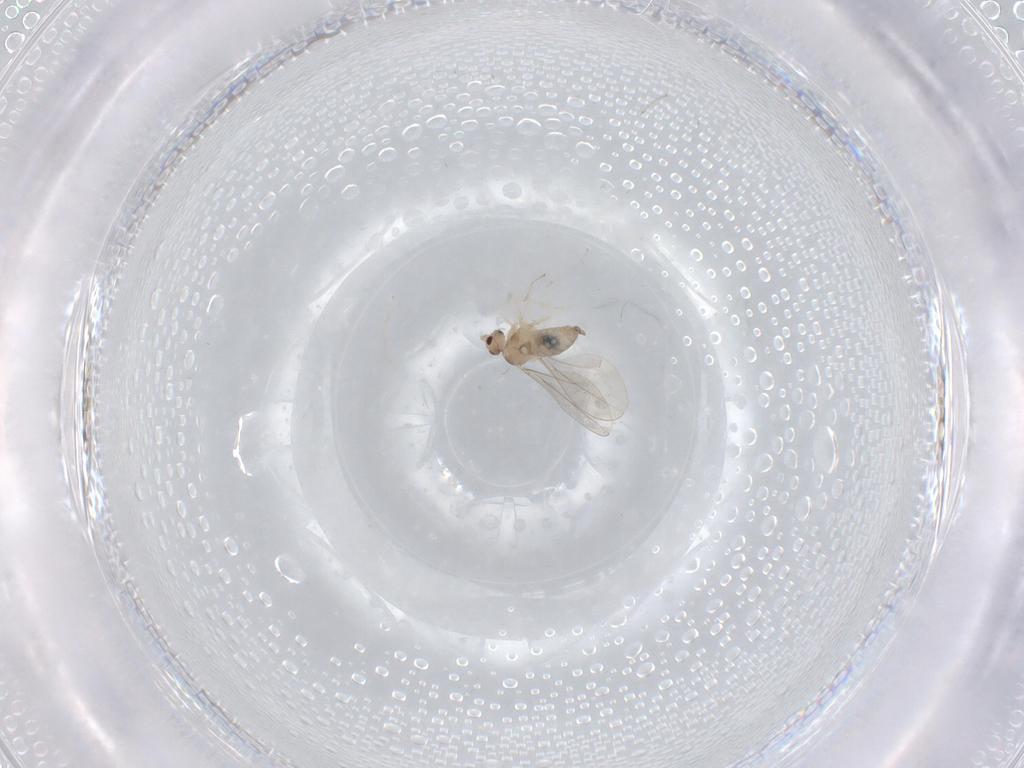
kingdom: Animalia
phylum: Arthropoda
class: Insecta
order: Diptera
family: Cecidomyiidae
